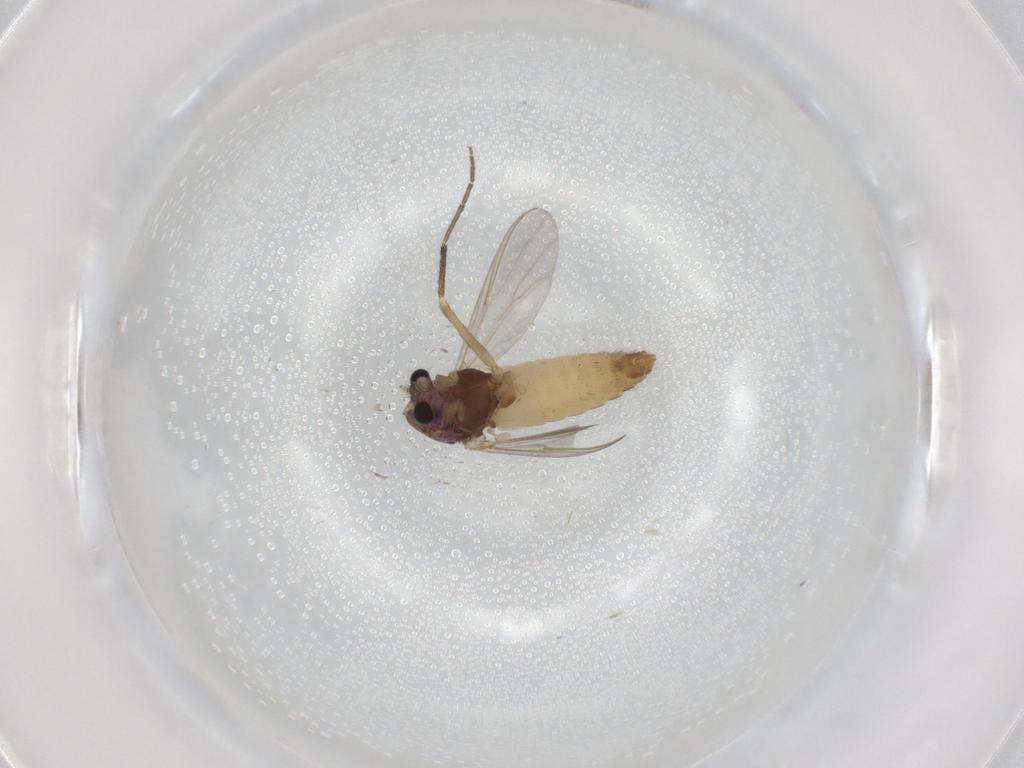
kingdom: Animalia
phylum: Arthropoda
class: Insecta
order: Diptera
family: Chironomidae
